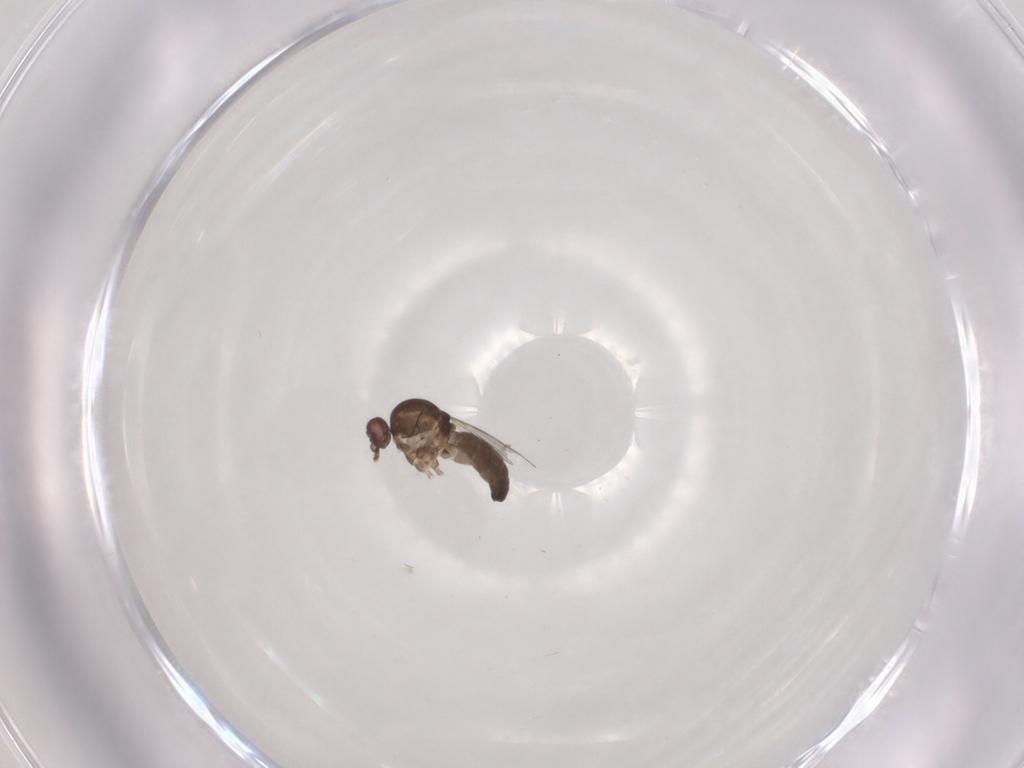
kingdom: Animalia
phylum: Arthropoda
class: Insecta
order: Diptera
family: Ceratopogonidae
